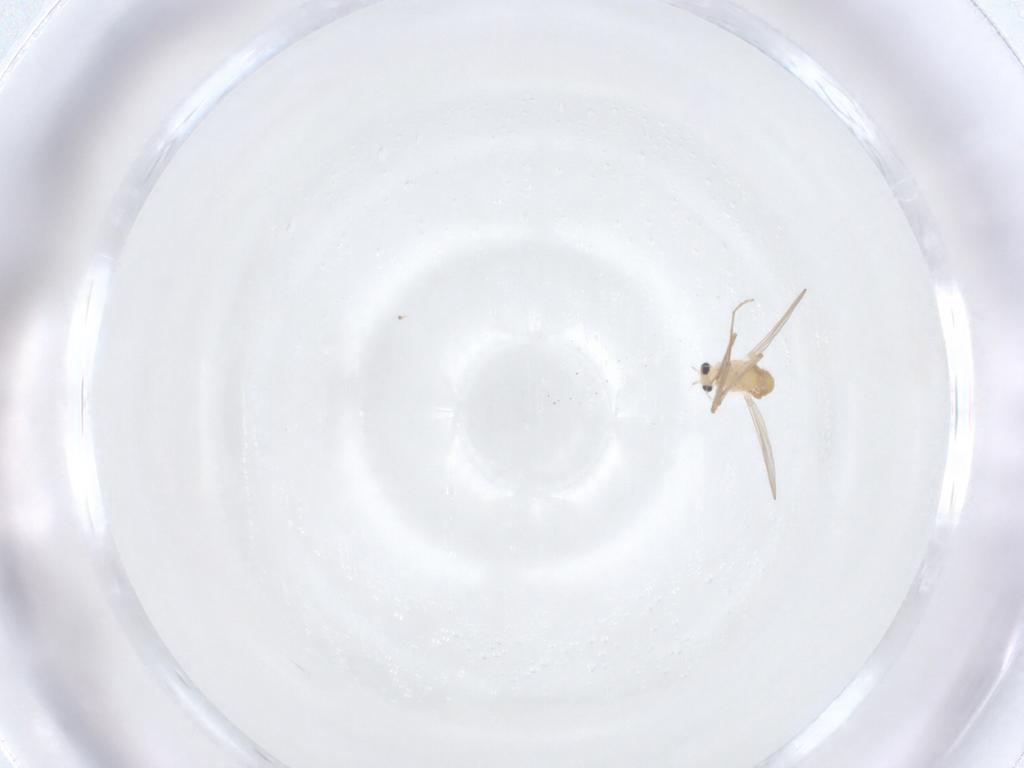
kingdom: Animalia
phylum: Arthropoda
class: Insecta
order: Diptera
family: Chironomidae
